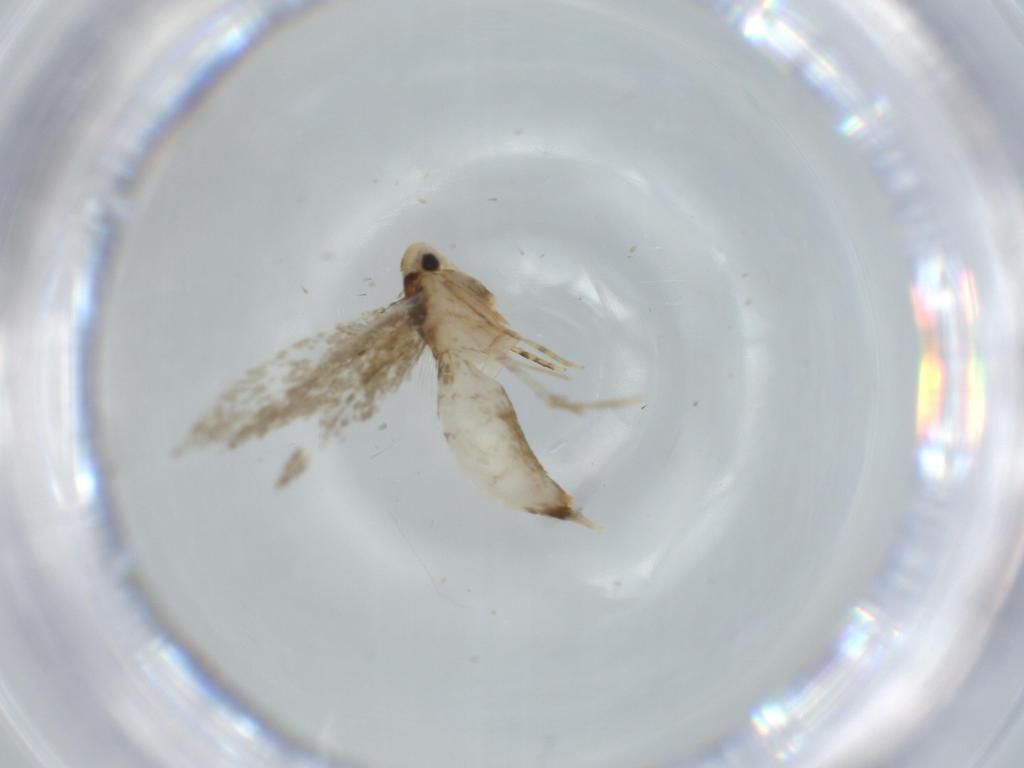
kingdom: Animalia
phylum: Arthropoda
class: Insecta
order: Lepidoptera
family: Tineidae
